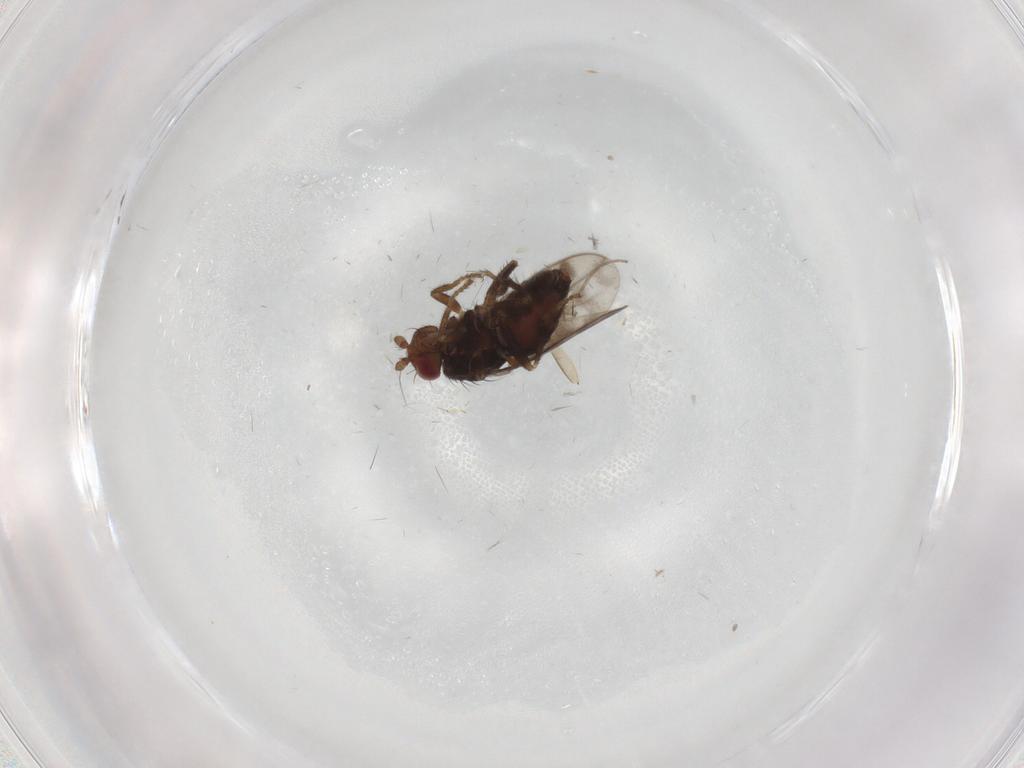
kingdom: Animalia
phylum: Arthropoda
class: Insecta
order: Diptera
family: Sphaeroceridae
